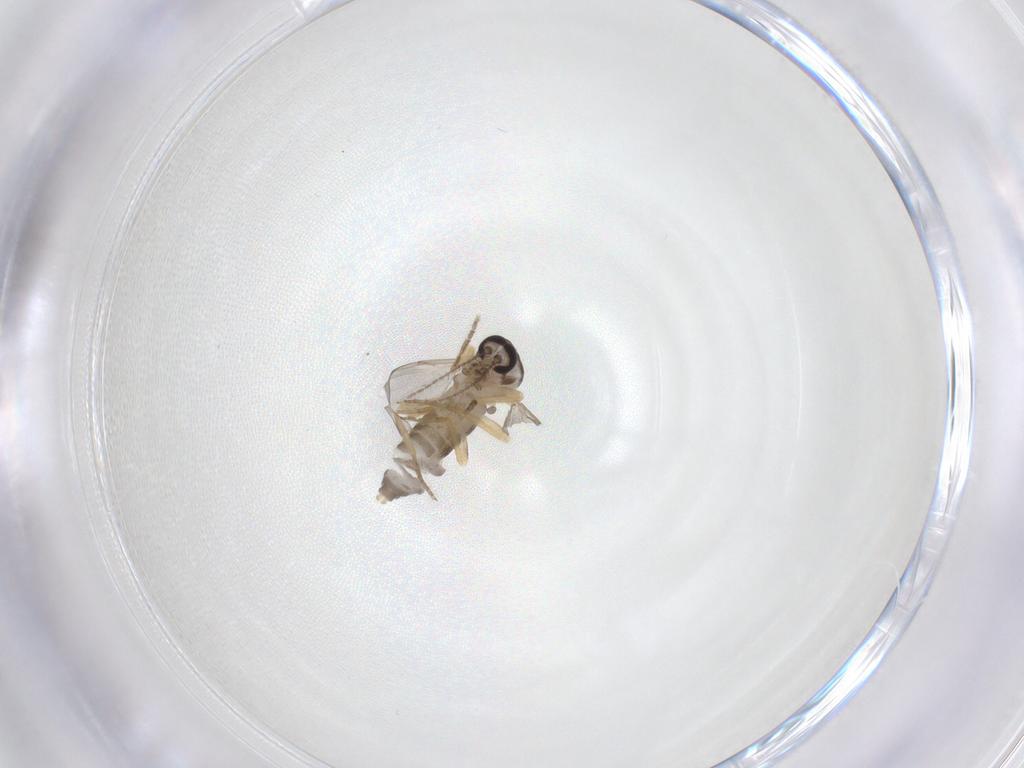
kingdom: Animalia
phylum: Arthropoda
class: Insecta
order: Diptera
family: Ceratopogonidae
